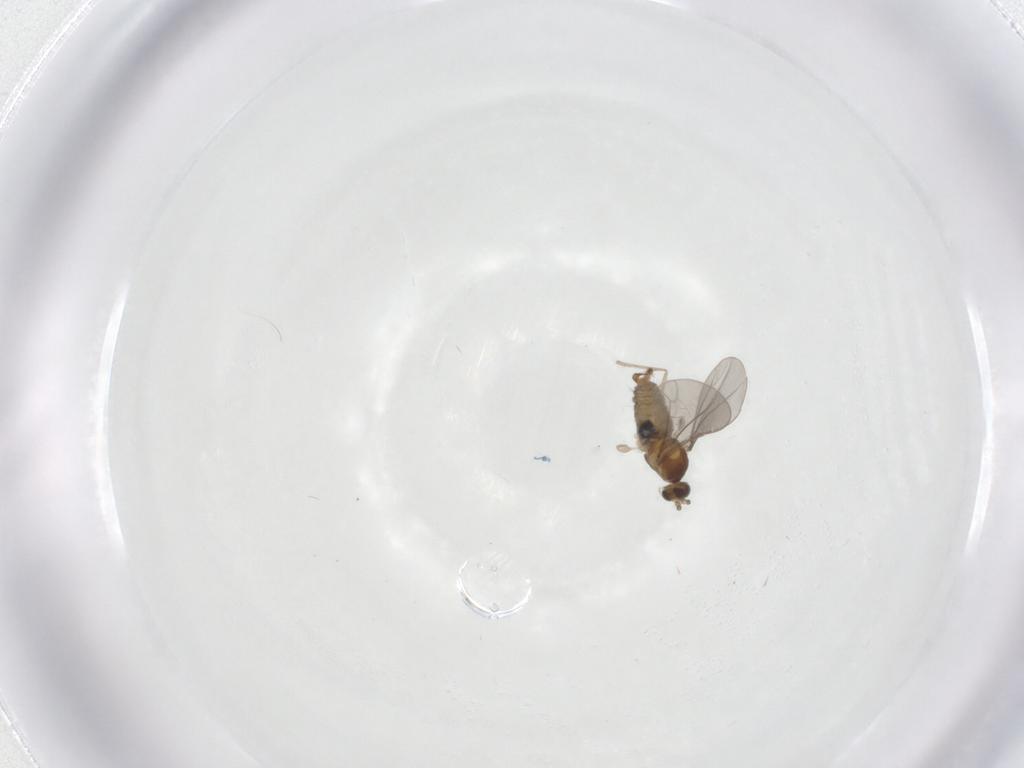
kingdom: Animalia
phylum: Arthropoda
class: Insecta
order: Diptera
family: Cecidomyiidae
